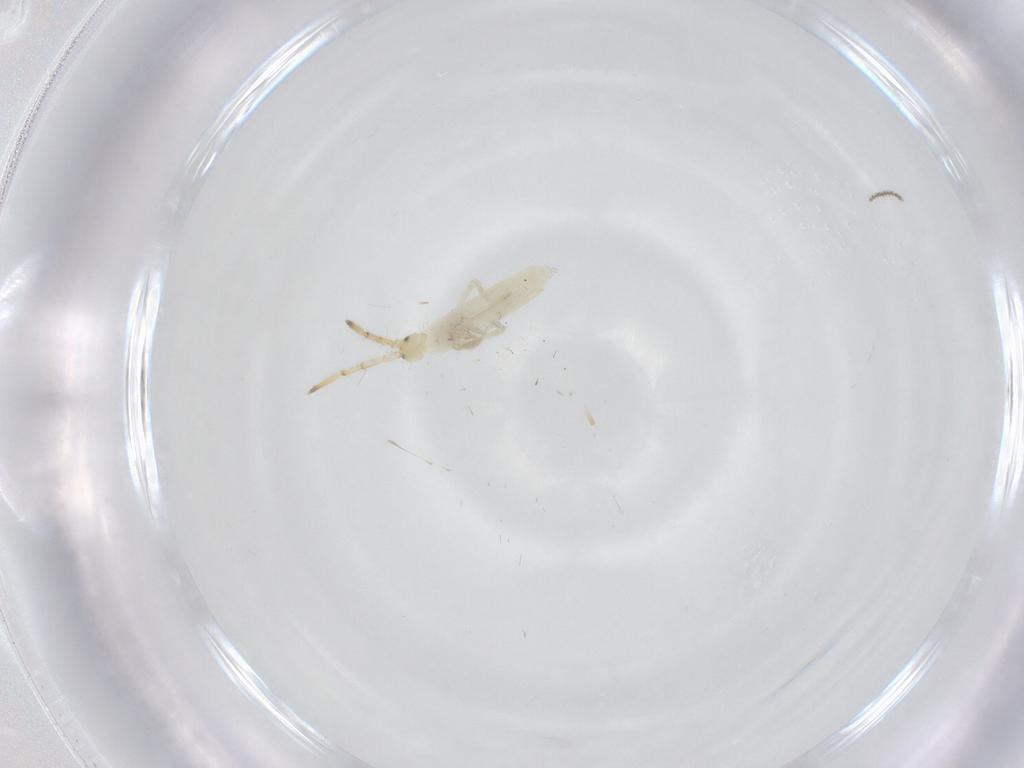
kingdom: Animalia
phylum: Arthropoda
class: Collembola
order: Entomobryomorpha
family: Entomobryidae
